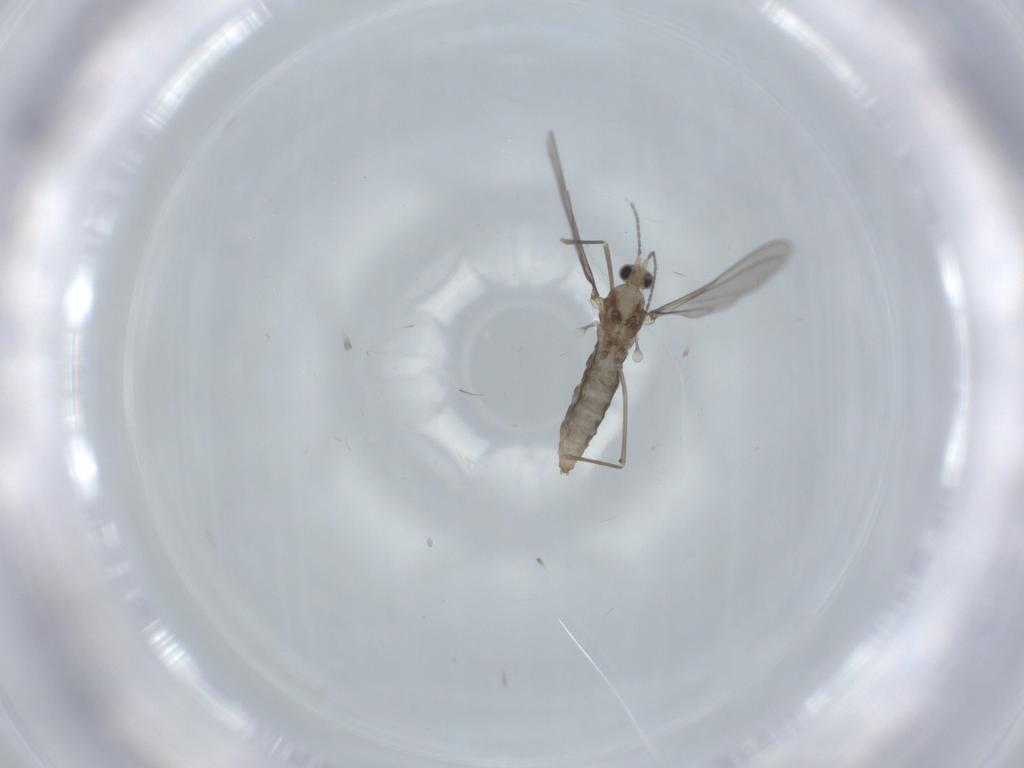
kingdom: Animalia
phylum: Arthropoda
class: Insecta
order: Diptera
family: Cecidomyiidae
